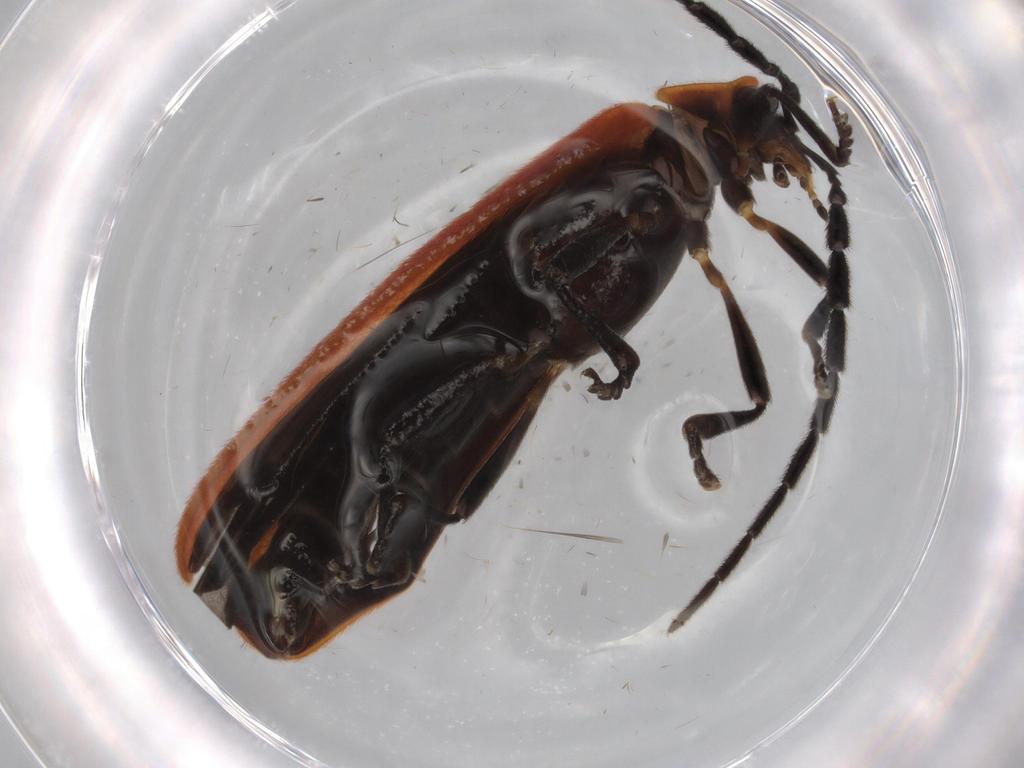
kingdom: Animalia
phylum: Arthropoda
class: Insecta
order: Coleoptera
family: Lycidae
